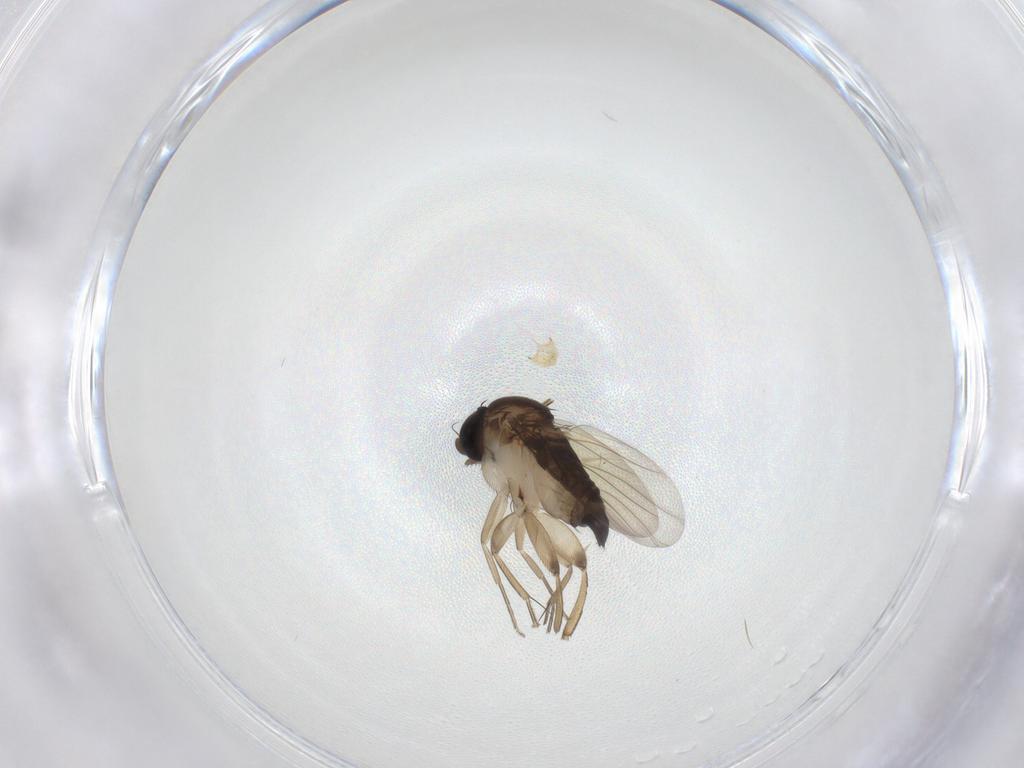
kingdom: Animalia
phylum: Arthropoda
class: Insecta
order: Diptera
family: Phoridae
